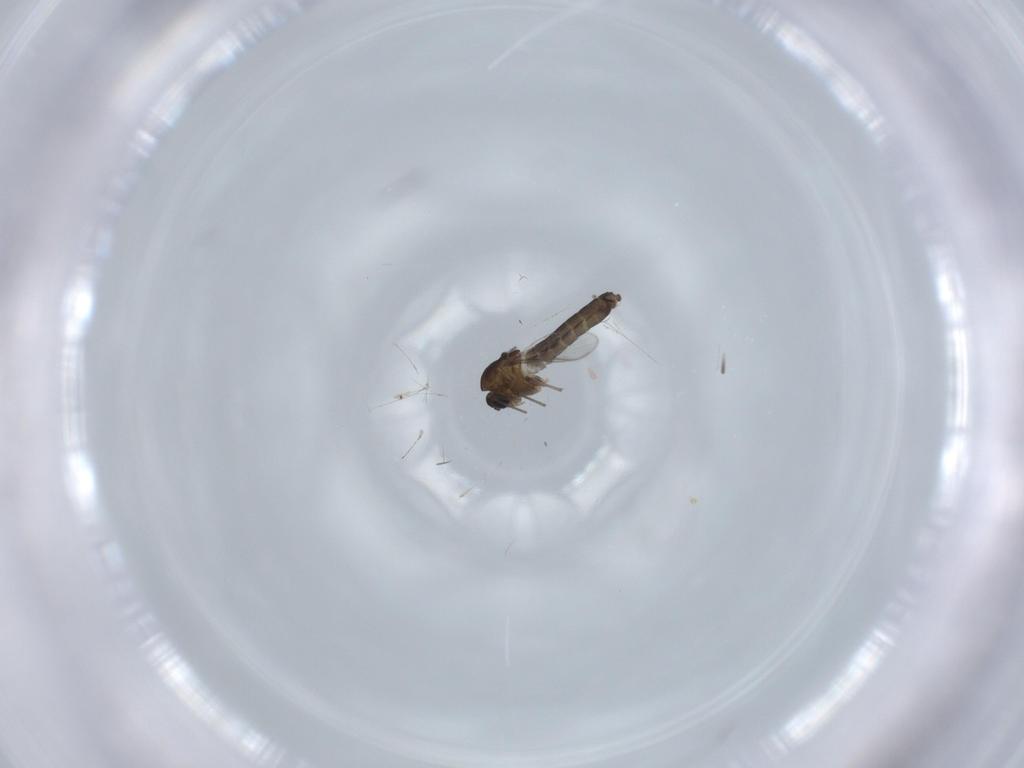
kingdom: Animalia
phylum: Arthropoda
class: Insecta
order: Diptera
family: Chironomidae
